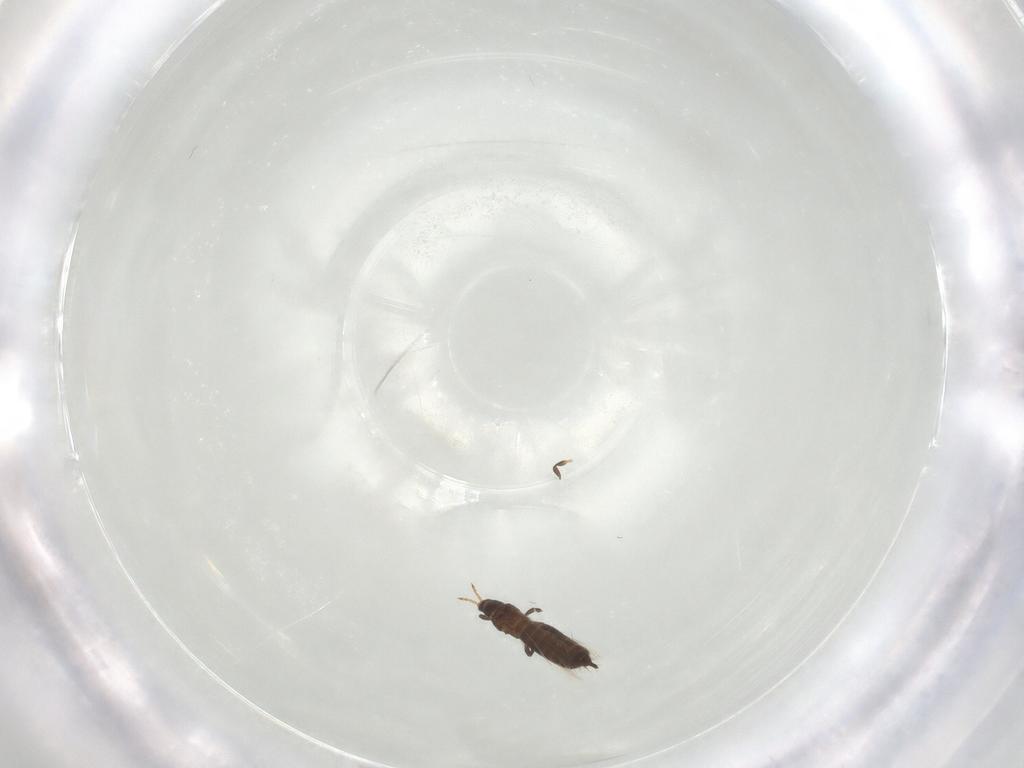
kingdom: Animalia
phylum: Arthropoda
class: Insecta
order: Thysanoptera
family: Thripidae
